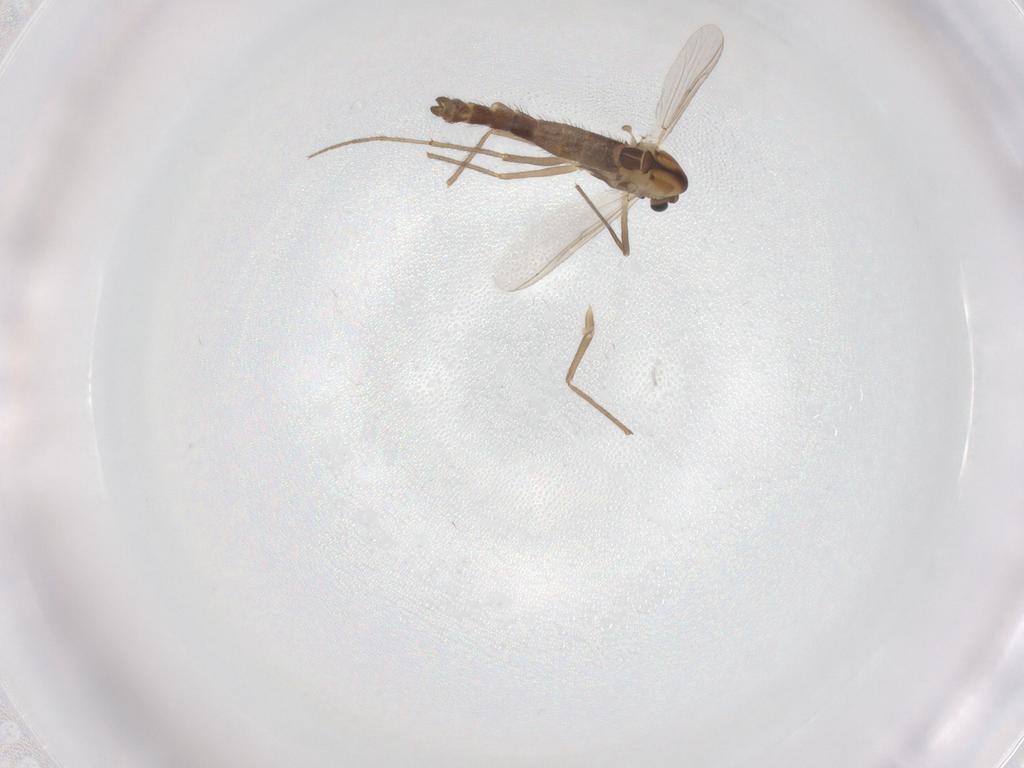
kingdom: Animalia
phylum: Arthropoda
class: Insecta
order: Diptera
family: Chironomidae
